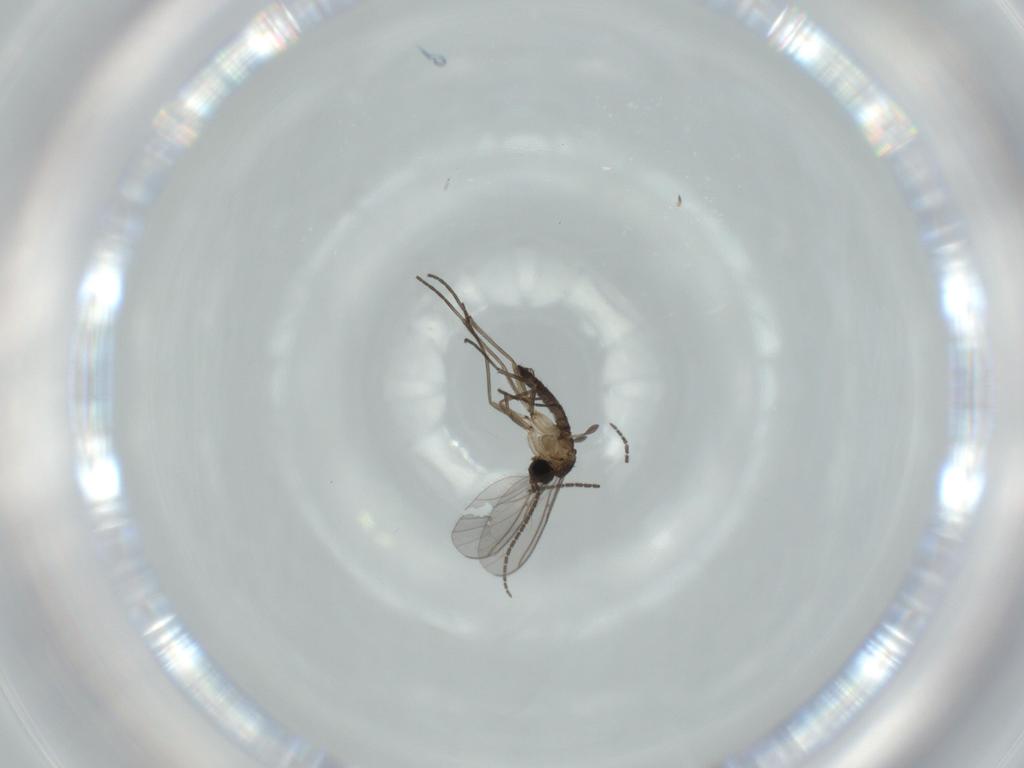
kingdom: Animalia
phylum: Arthropoda
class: Insecta
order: Diptera
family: Sciaridae
